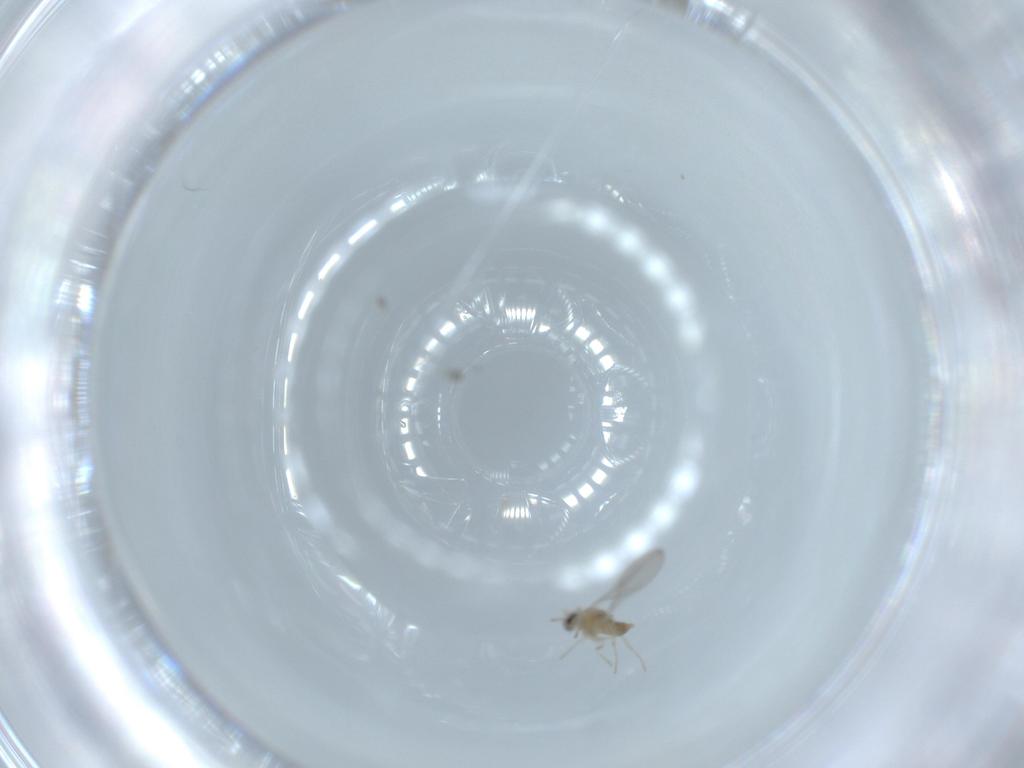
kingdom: Animalia
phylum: Arthropoda
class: Insecta
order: Diptera
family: Cecidomyiidae
